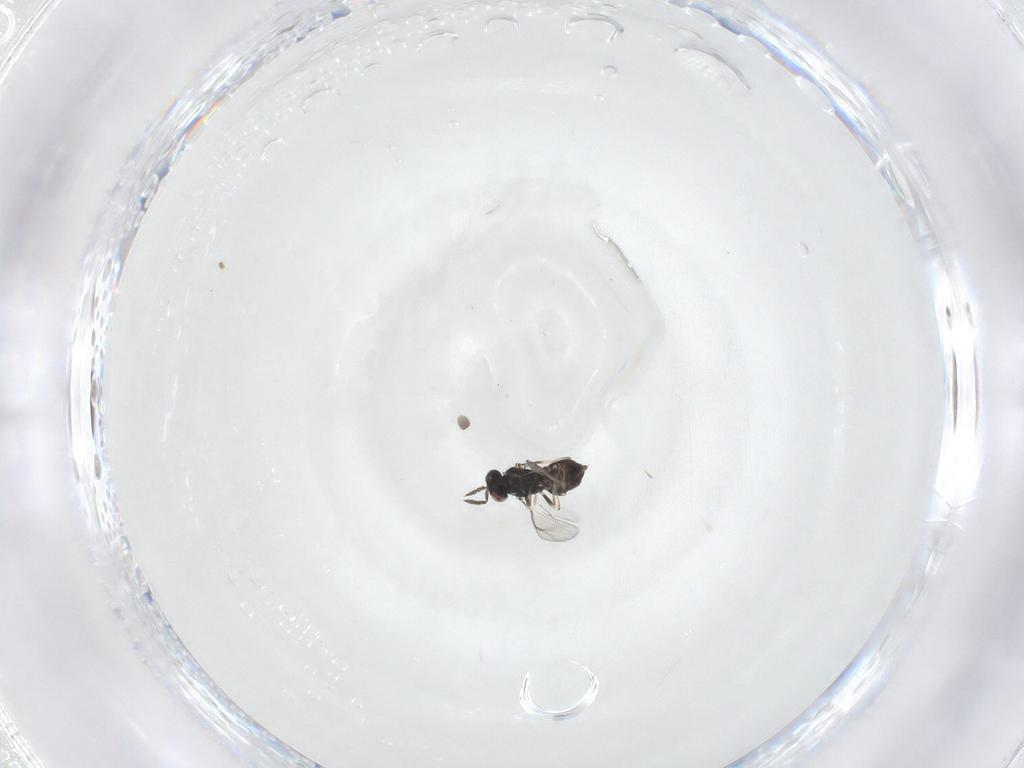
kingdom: Animalia
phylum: Arthropoda
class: Insecta
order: Hymenoptera
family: Eulophidae
